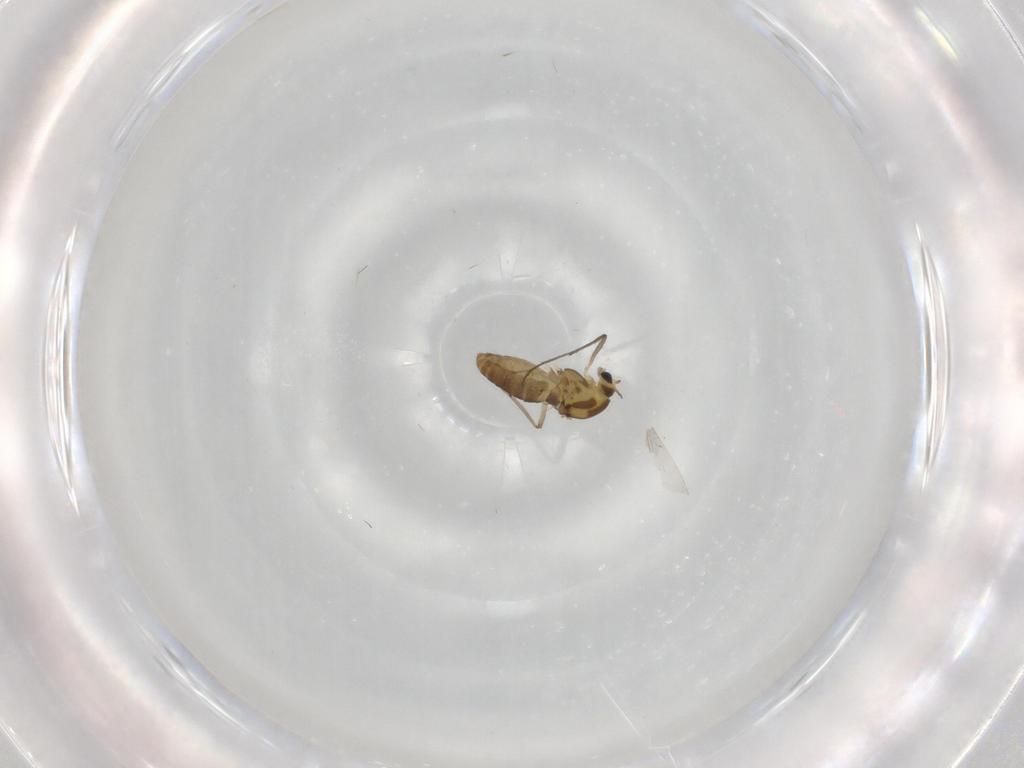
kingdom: Animalia
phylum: Arthropoda
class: Insecta
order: Diptera
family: Chironomidae
